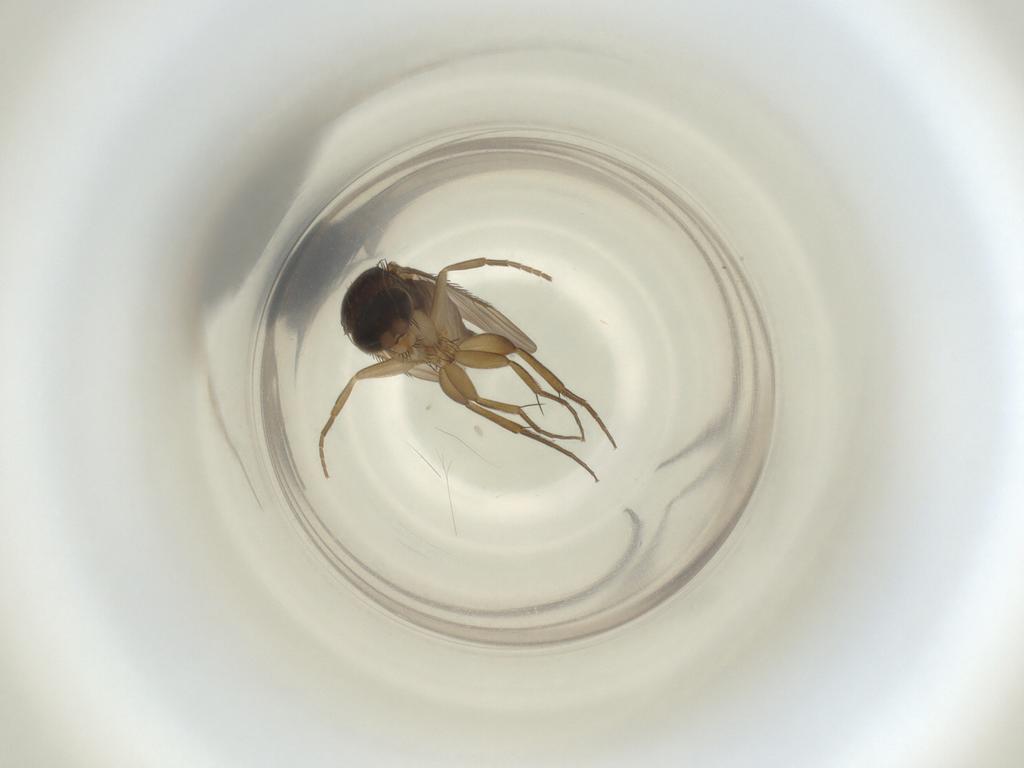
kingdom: Animalia
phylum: Arthropoda
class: Insecta
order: Diptera
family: Phoridae
